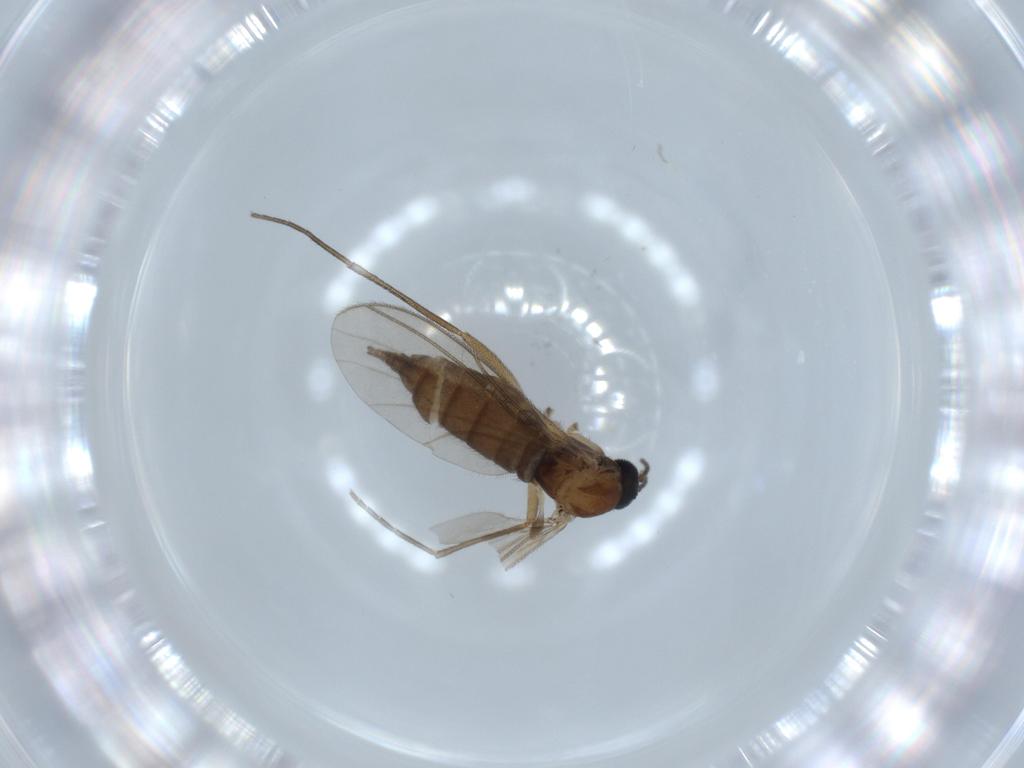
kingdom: Animalia
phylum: Arthropoda
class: Insecta
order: Diptera
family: Sciaridae
